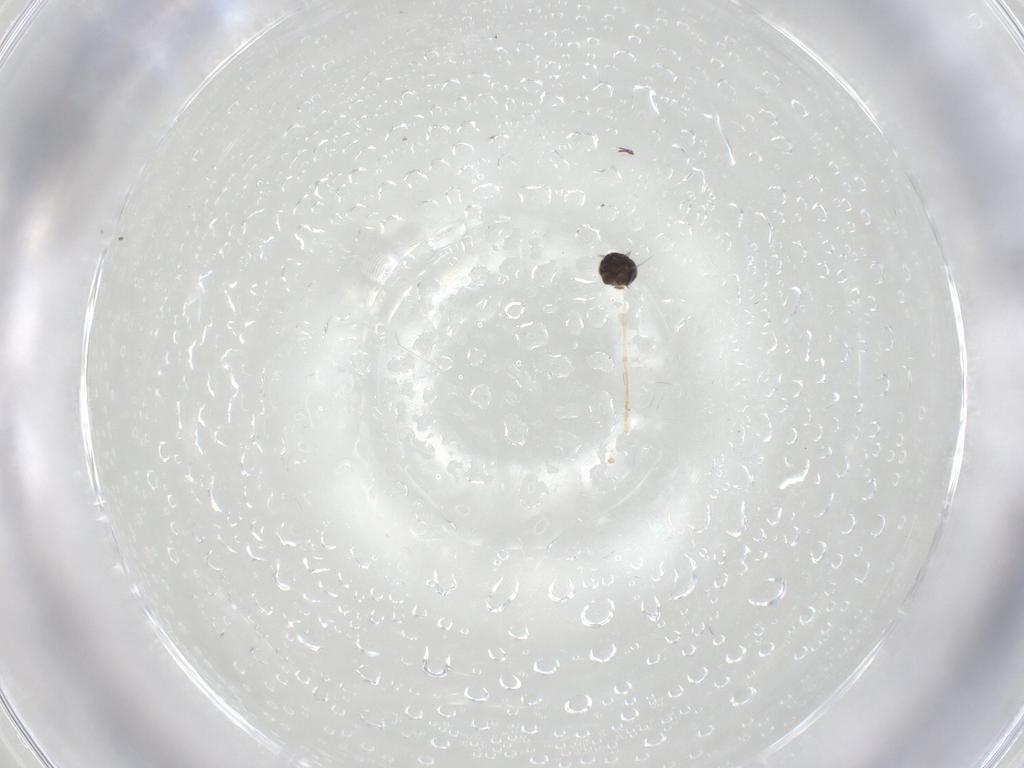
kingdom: Animalia
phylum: Arthropoda
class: Insecta
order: Diptera
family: Phoridae
